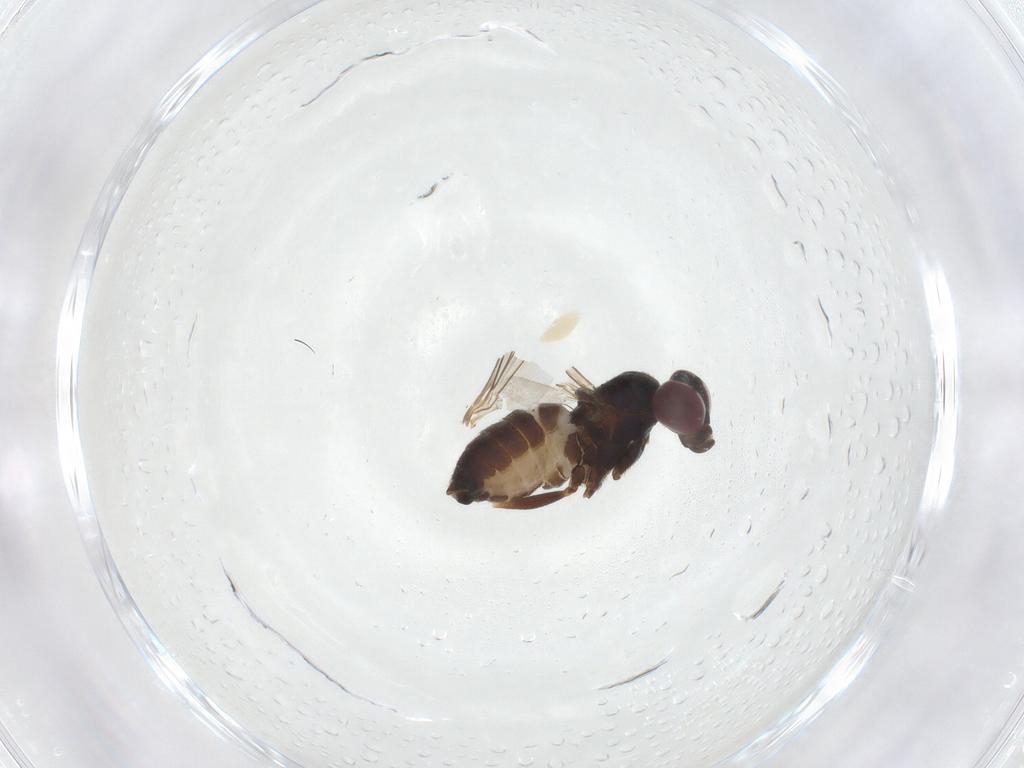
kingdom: Animalia
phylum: Arthropoda
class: Insecta
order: Diptera
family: Dolichopodidae
